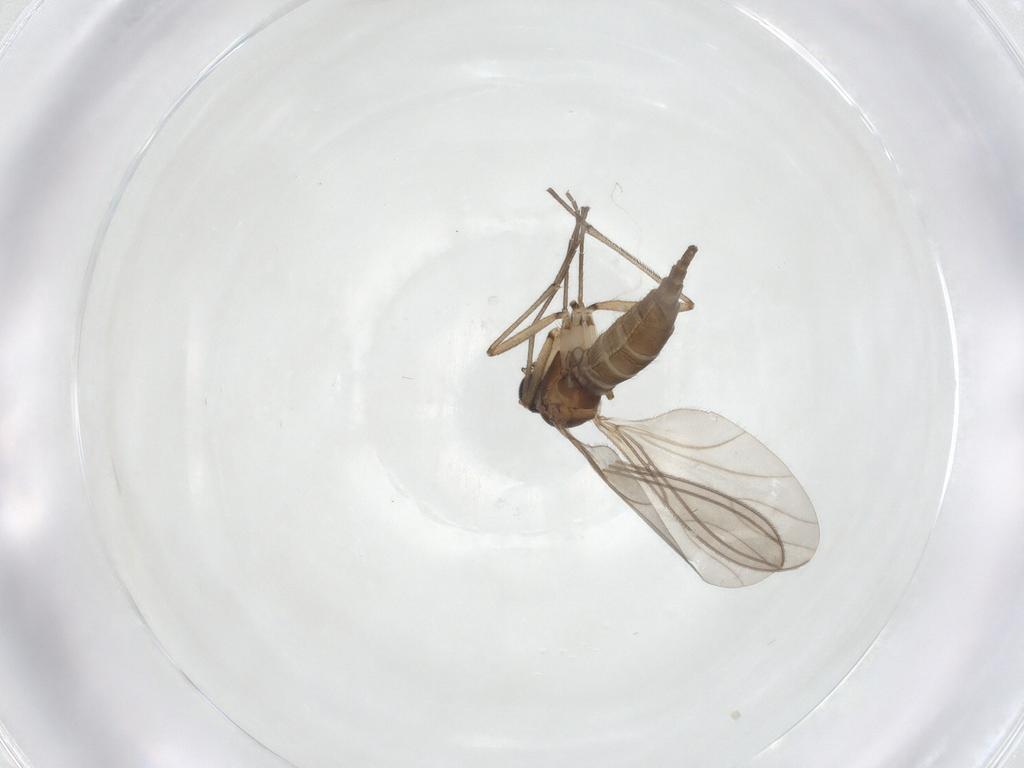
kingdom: Animalia
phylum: Arthropoda
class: Insecta
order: Diptera
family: Sciaridae
